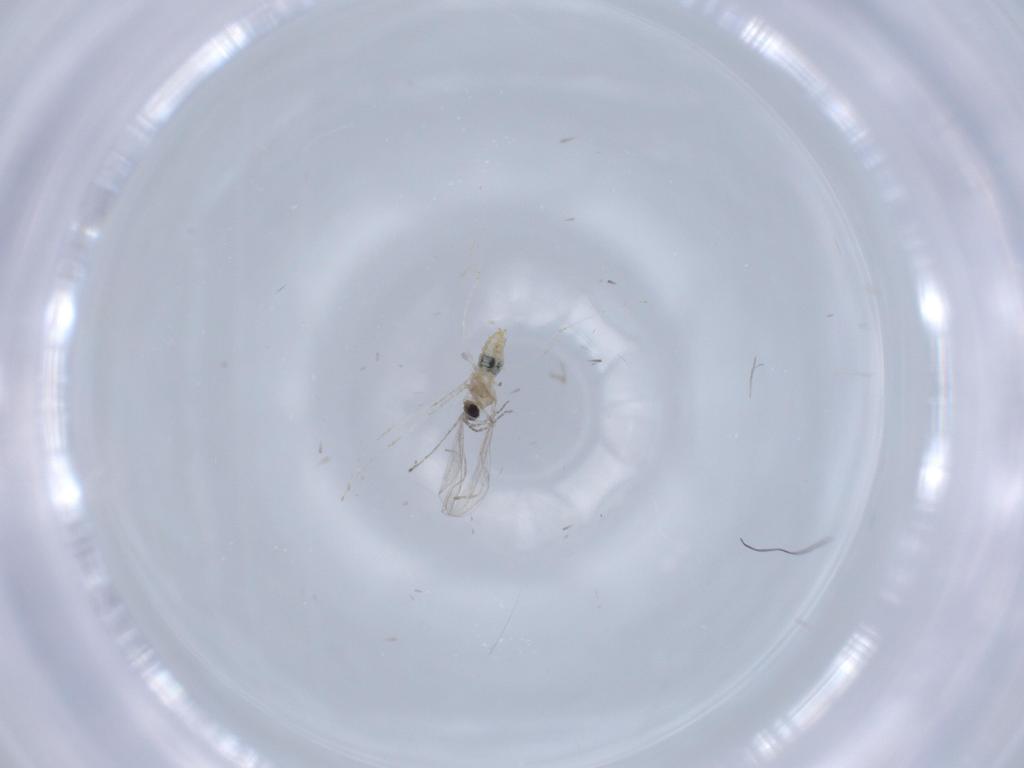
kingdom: Animalia
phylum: Arthropoda
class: Insecta
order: Diptera
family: Cecidomyiidae
